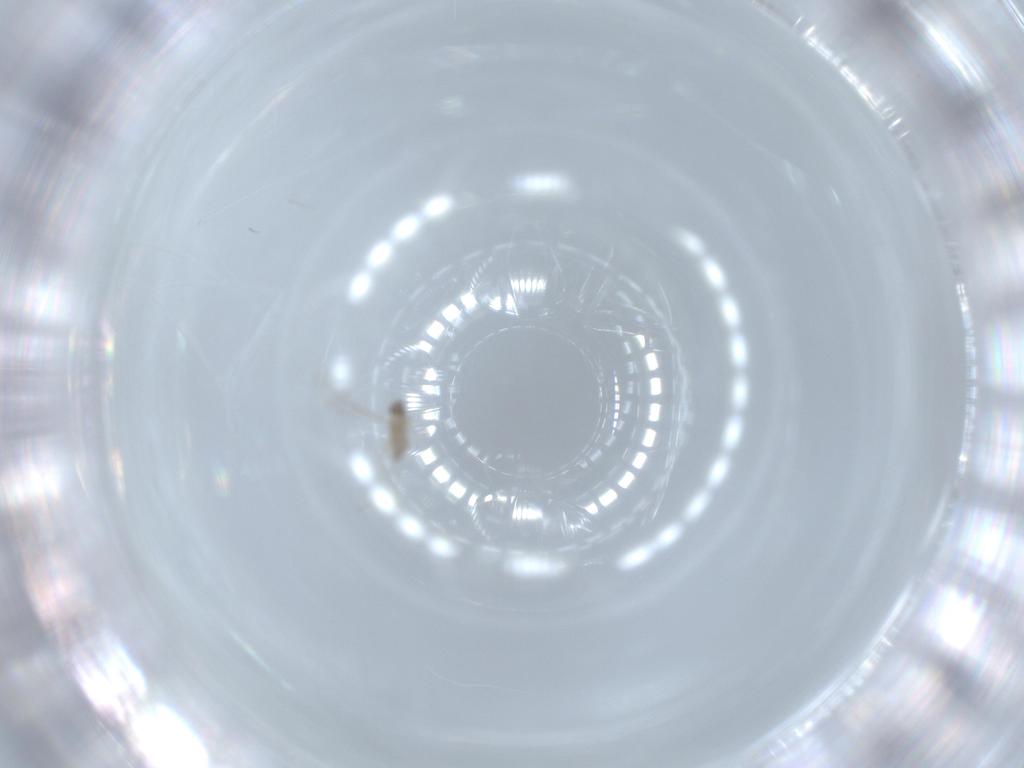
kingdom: Animalia
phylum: Arthropoda
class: Insecta
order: Diptera
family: Cecidomyiidae
